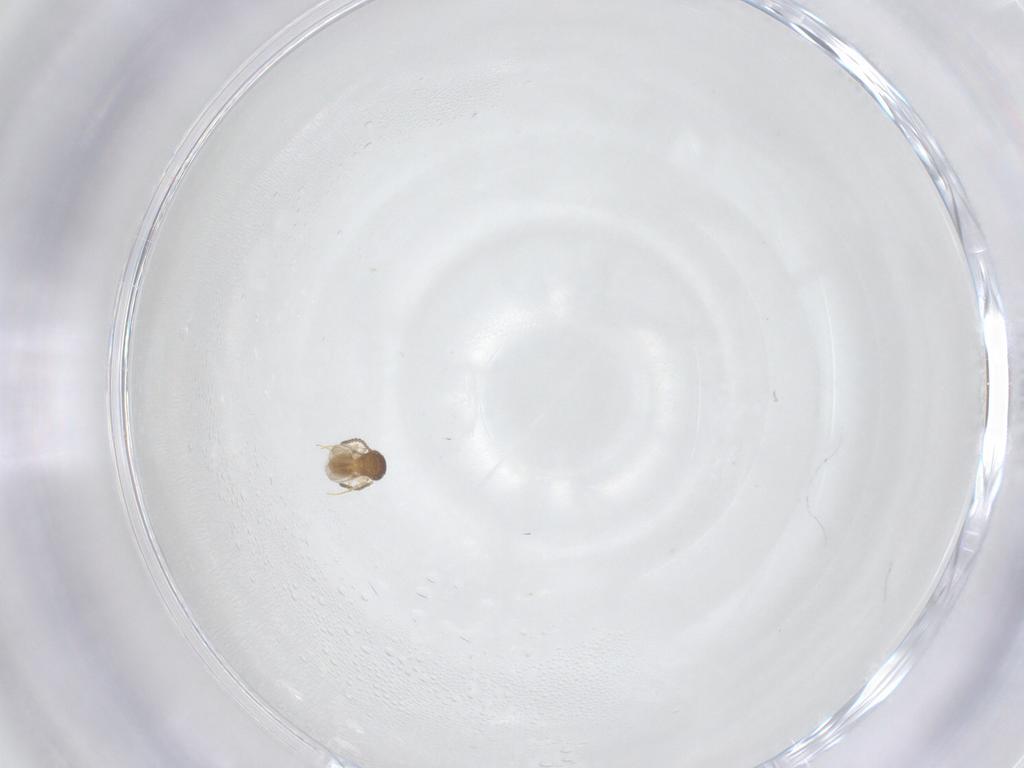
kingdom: Animalia
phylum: Arthropoda
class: Insecta
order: Hymenoptera
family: Scelionidae
